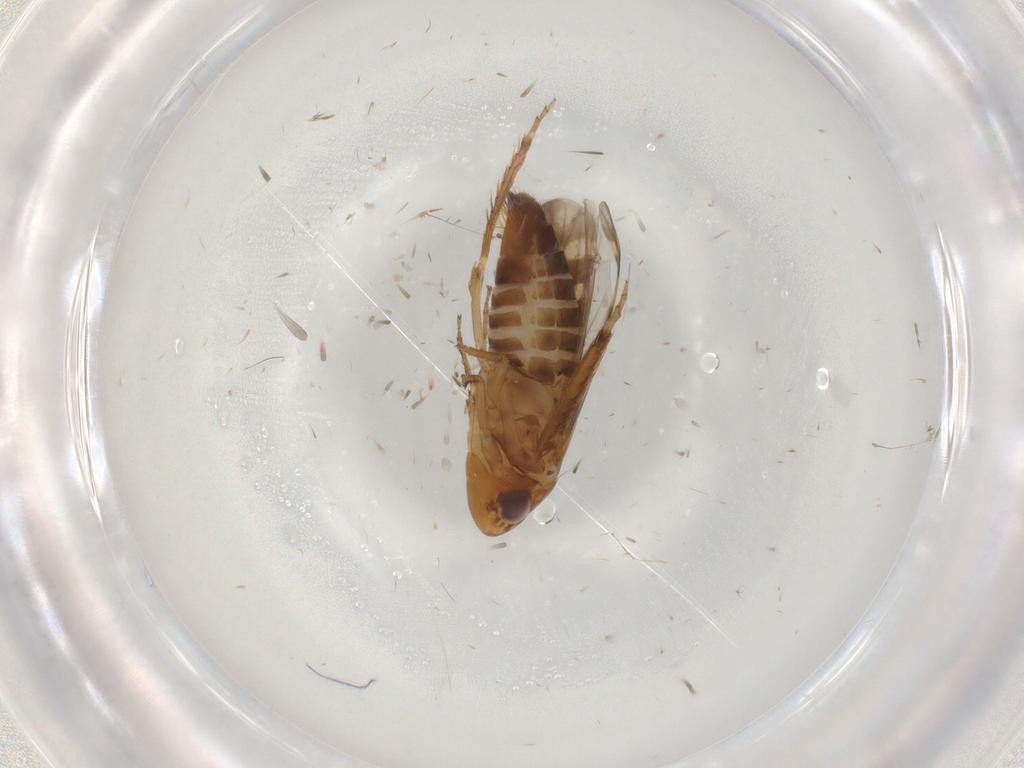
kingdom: Animalia
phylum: Arthropoda
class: Insecta
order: Hemiptera
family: Cicadellidae
